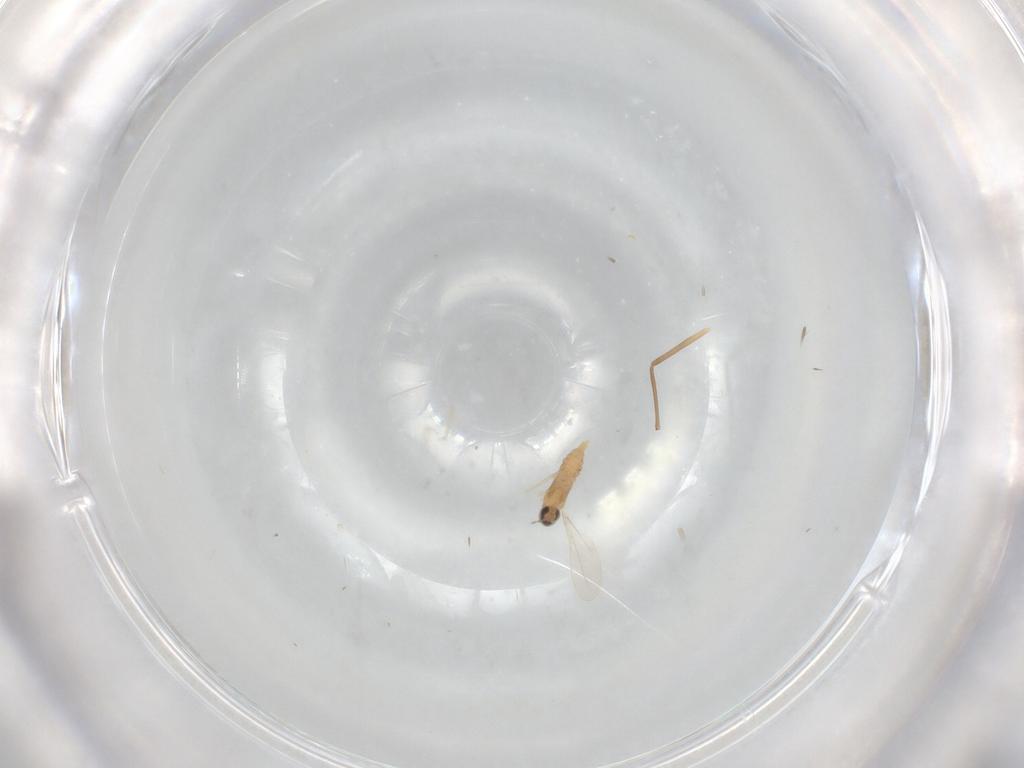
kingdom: Animalia
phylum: Arthropoda
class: Insecta
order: Diptera
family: Cecidomyiidae
